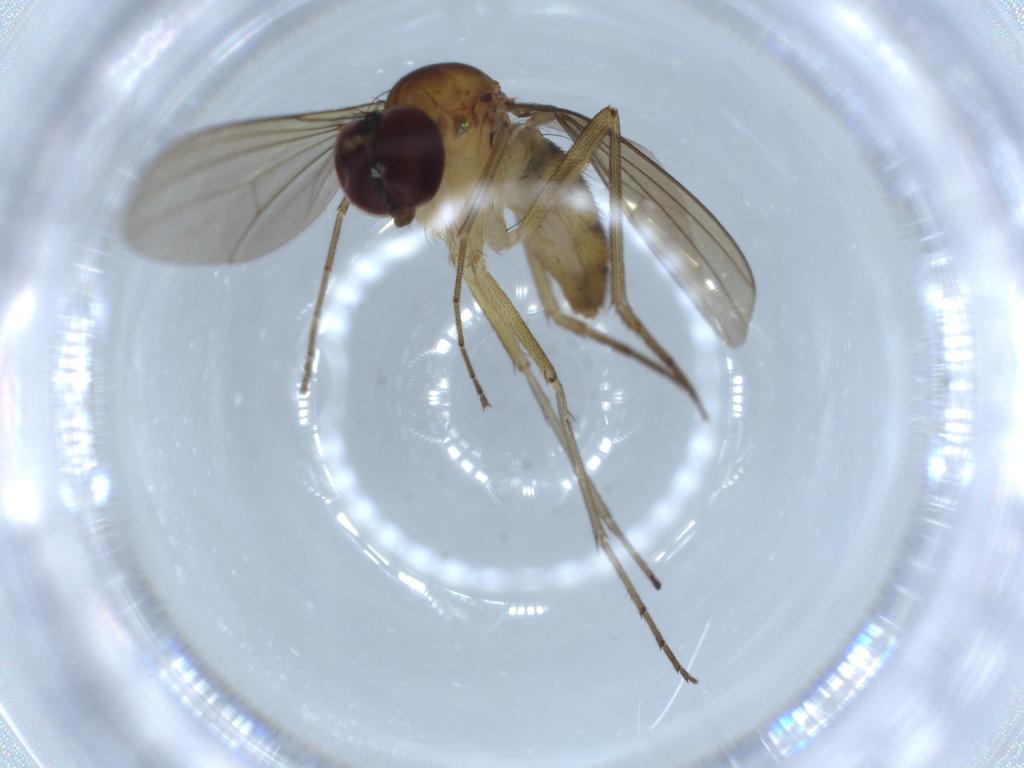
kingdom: Animalia
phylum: Arthropoda
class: Insecta
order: Diptera
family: Dolichopodidae
